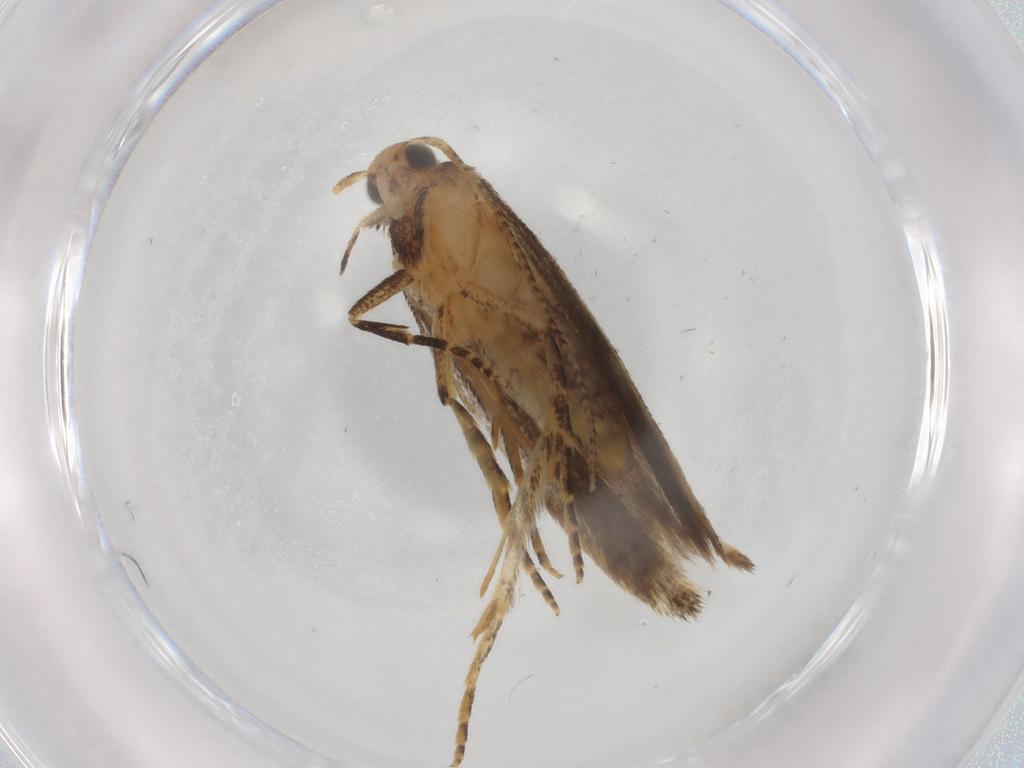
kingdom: Animalia
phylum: Arthropoda
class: Insecta
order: Lepidoptera
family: Gelechiidae
